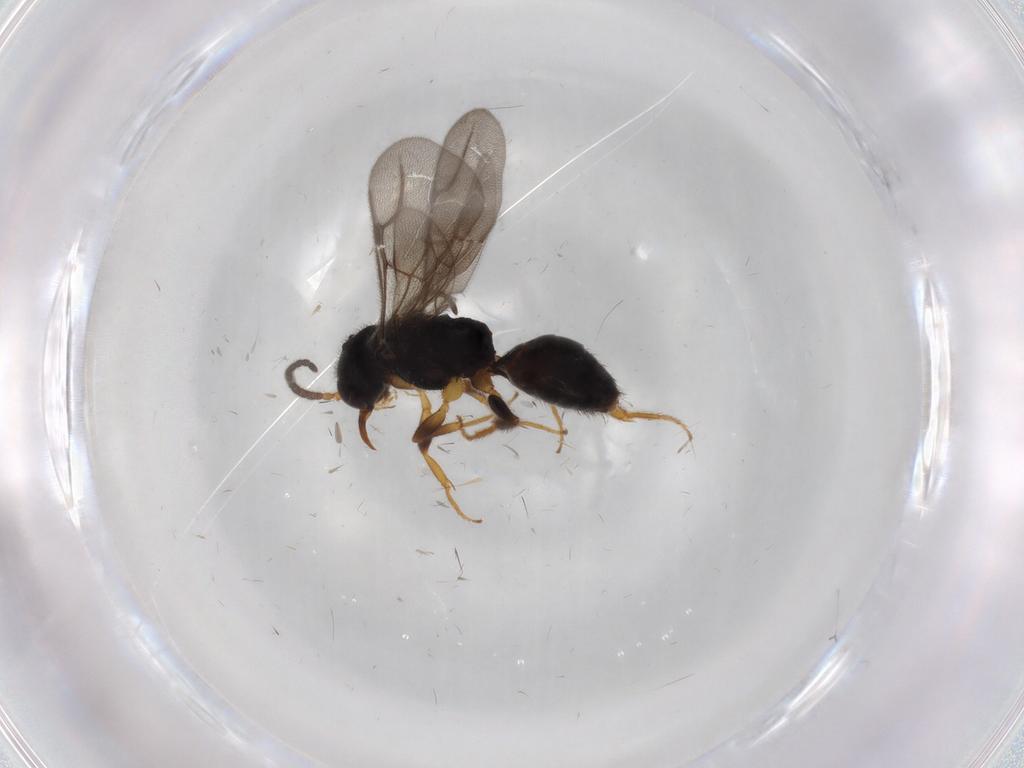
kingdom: Animalia
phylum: Arthropoda
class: Insecta
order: Hymenoptera
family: Bethylidae
